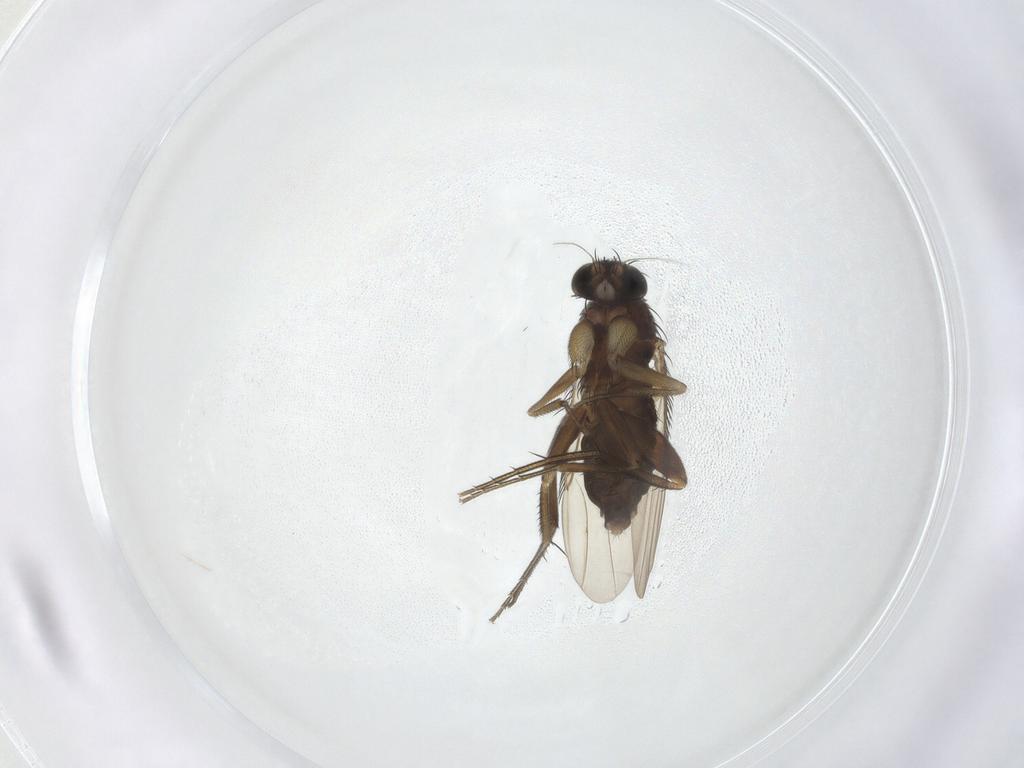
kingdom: Animalia
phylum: Arthropoda
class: Insecta
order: Diptera
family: Phoridae
